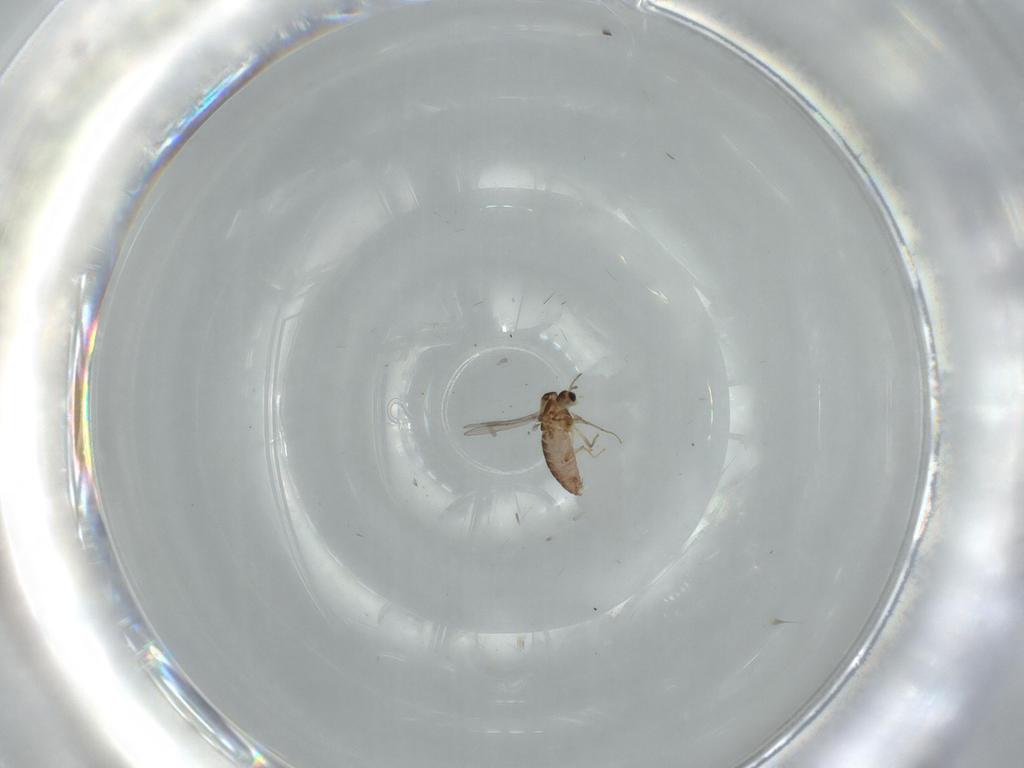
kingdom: Animalia
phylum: Arthropoda
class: Insecta
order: Diptera
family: Chironomidae
